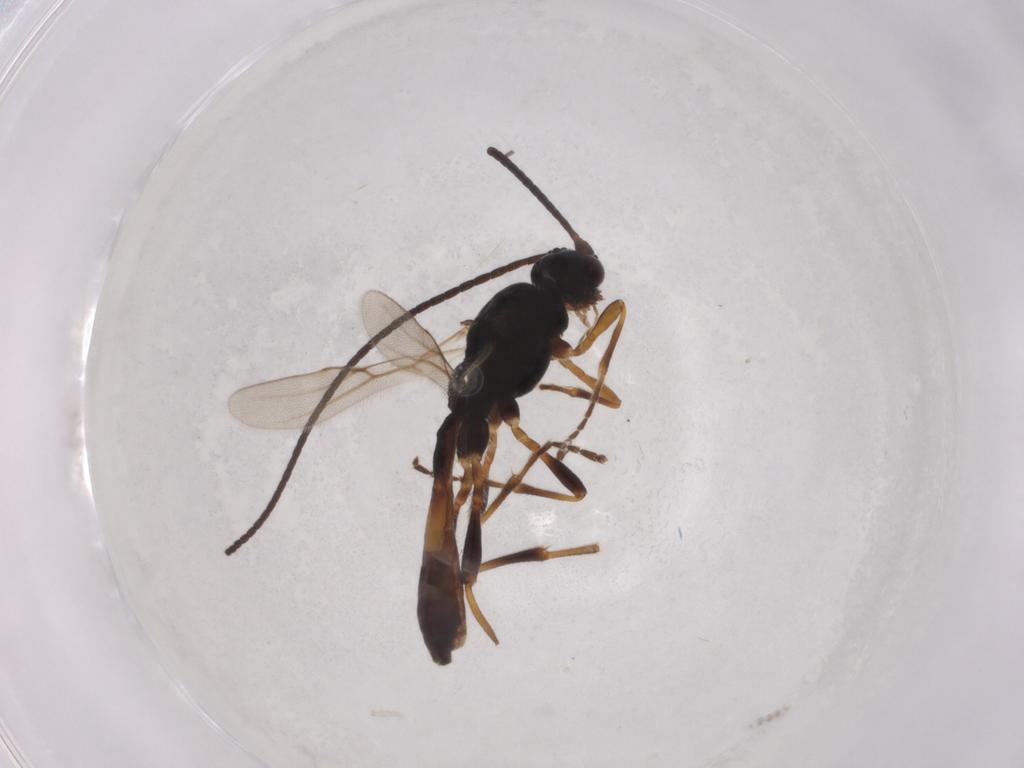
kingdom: Animalia
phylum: Arthropoda
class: Insecta
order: Hymenoptera
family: Braconidae
